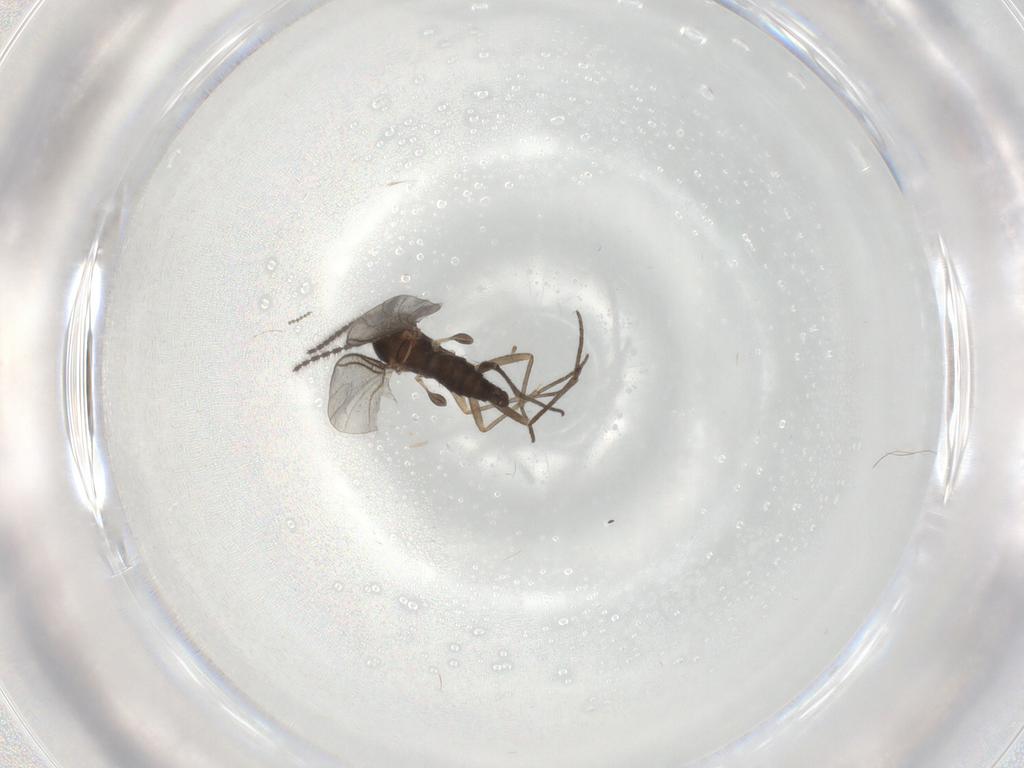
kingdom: Animalia
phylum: Arthropoda
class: Insecta
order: Diptera
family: Sciaridae
